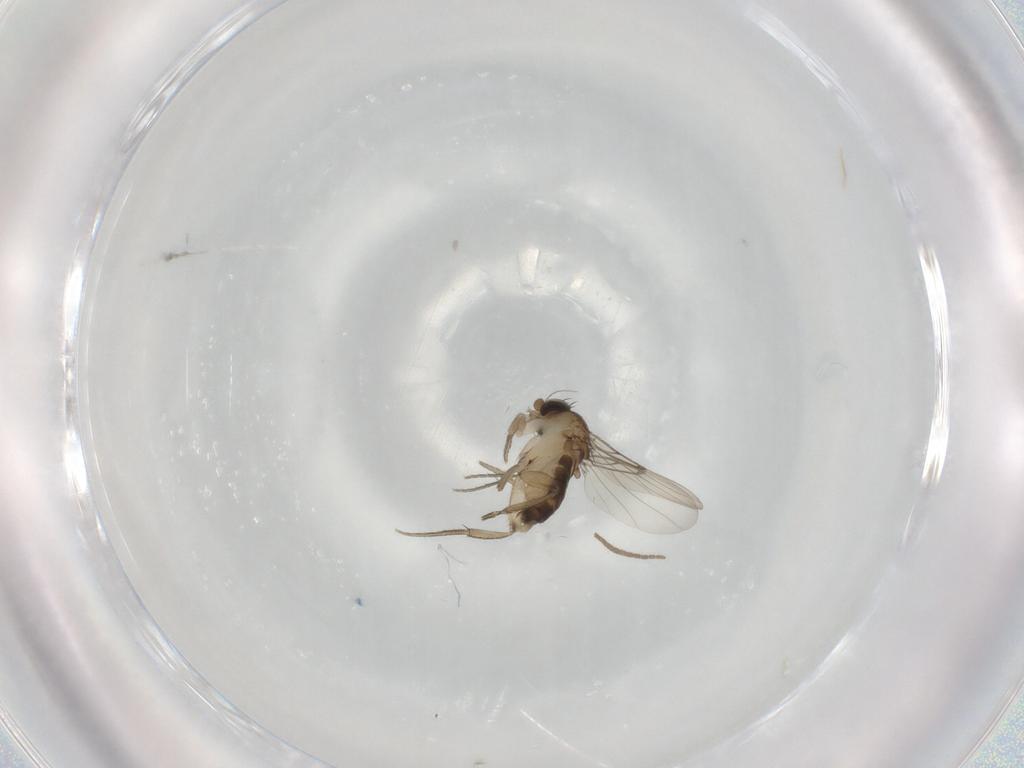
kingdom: Animalia
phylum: Arthropoda
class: Insecta
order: Diptera
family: Mycetophilidae
